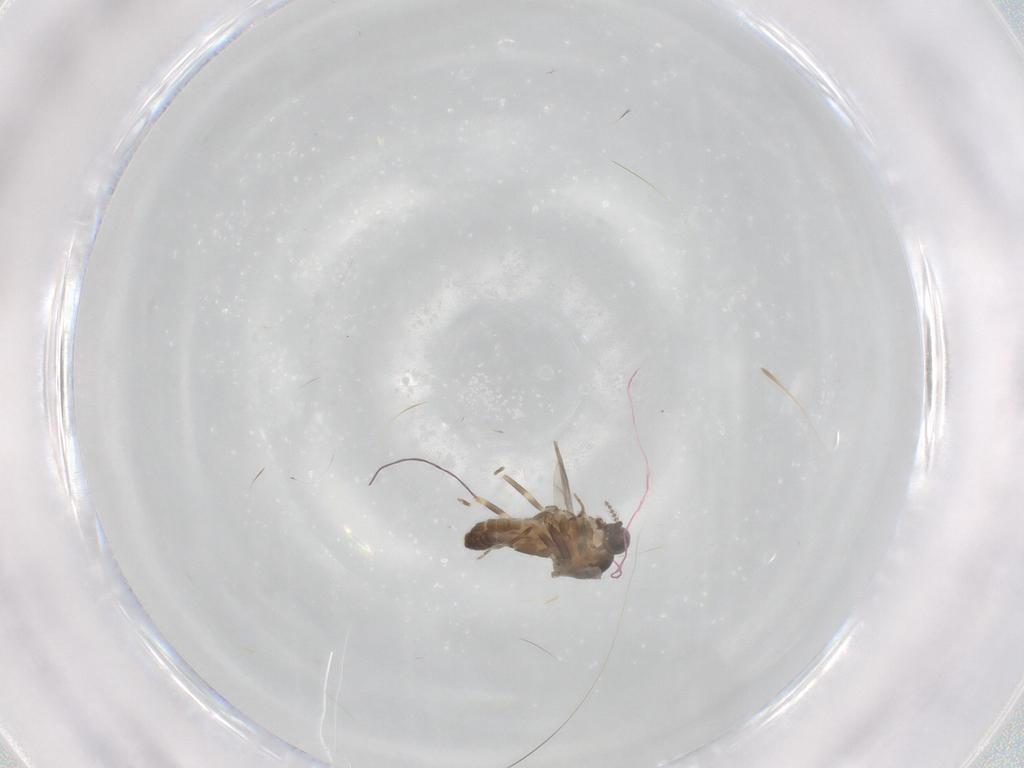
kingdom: Animalia
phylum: Arthropoda
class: Insecta
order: Diptera
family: Ceratopogonidae
